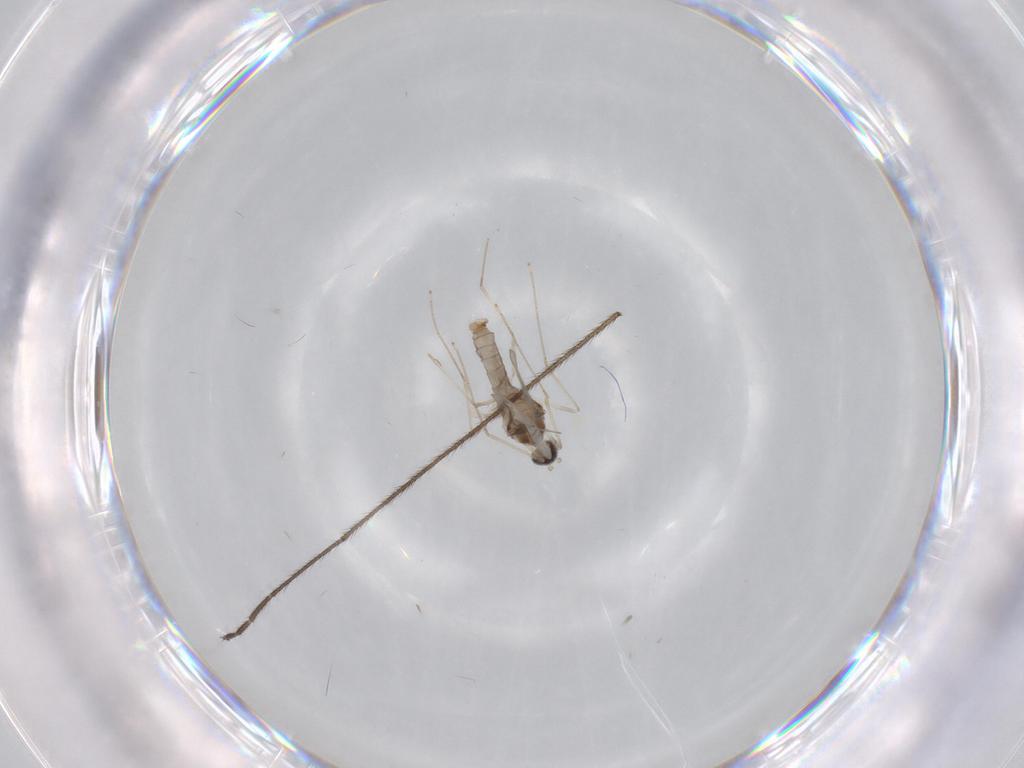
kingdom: Animalia
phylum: Arthropoda
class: Insecta
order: Diptera
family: Cecidomyiidae
